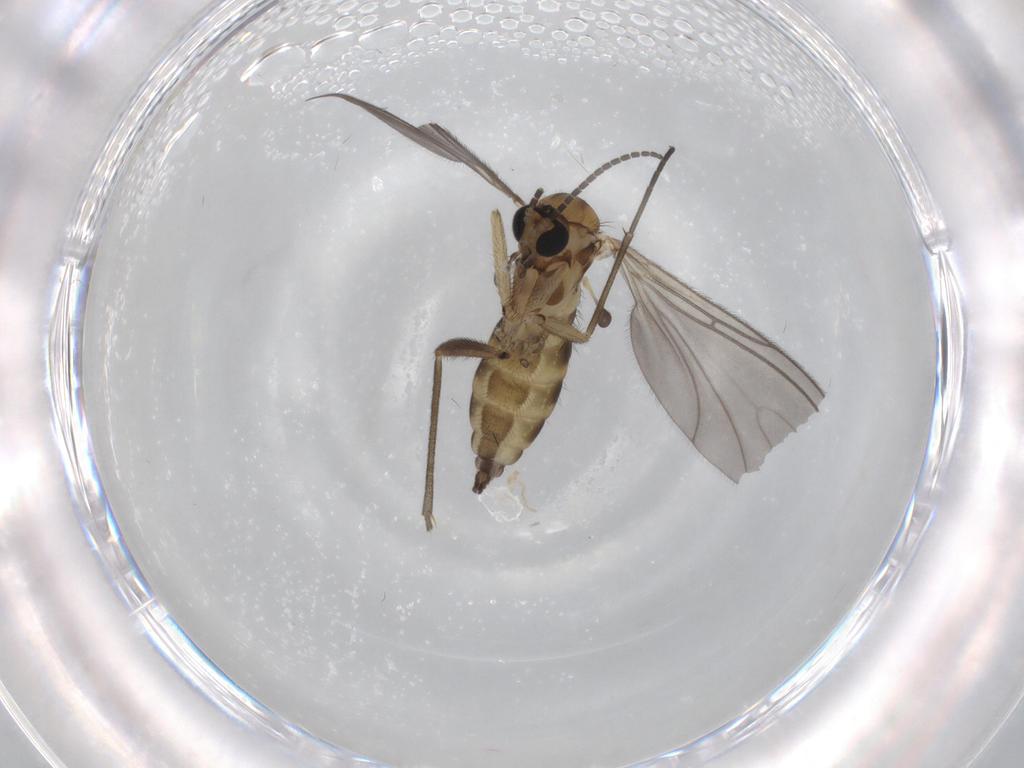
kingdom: Animalia
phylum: Arthropoda
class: Insecta
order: Diptera
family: Sciaridae
